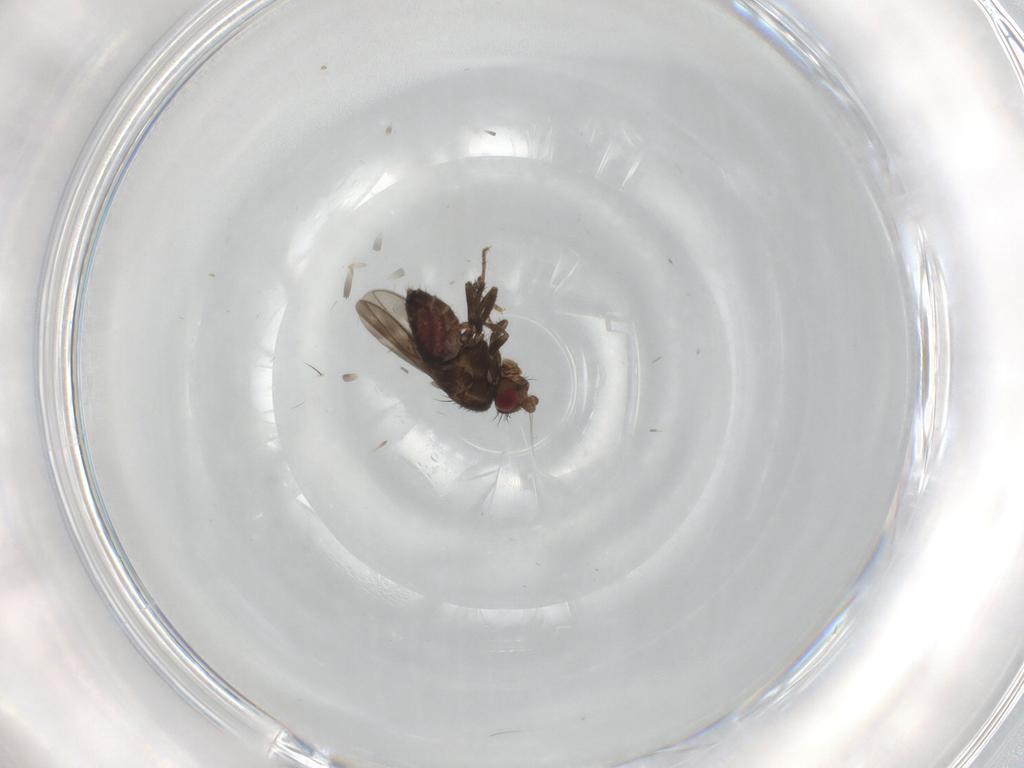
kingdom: Animalia
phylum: Arthropoda
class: Insecta
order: Diptera
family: Sphaeroceridae
